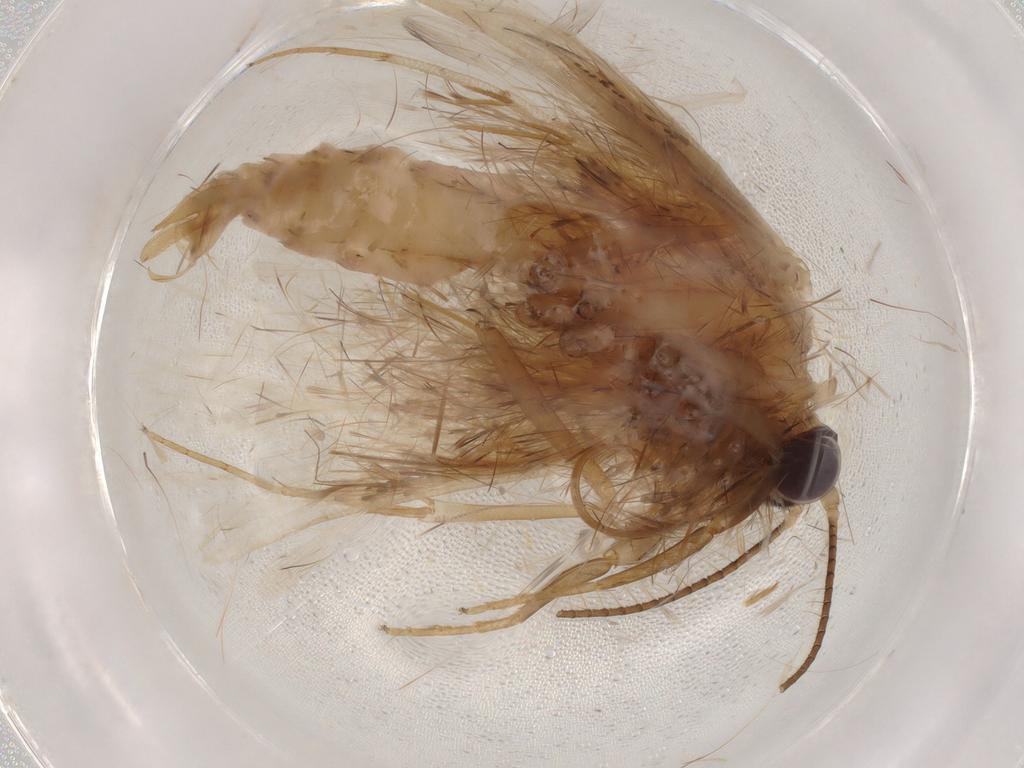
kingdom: Animalia
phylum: Arthropoda
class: Insecta
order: Lepidoptera
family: Erebidae
